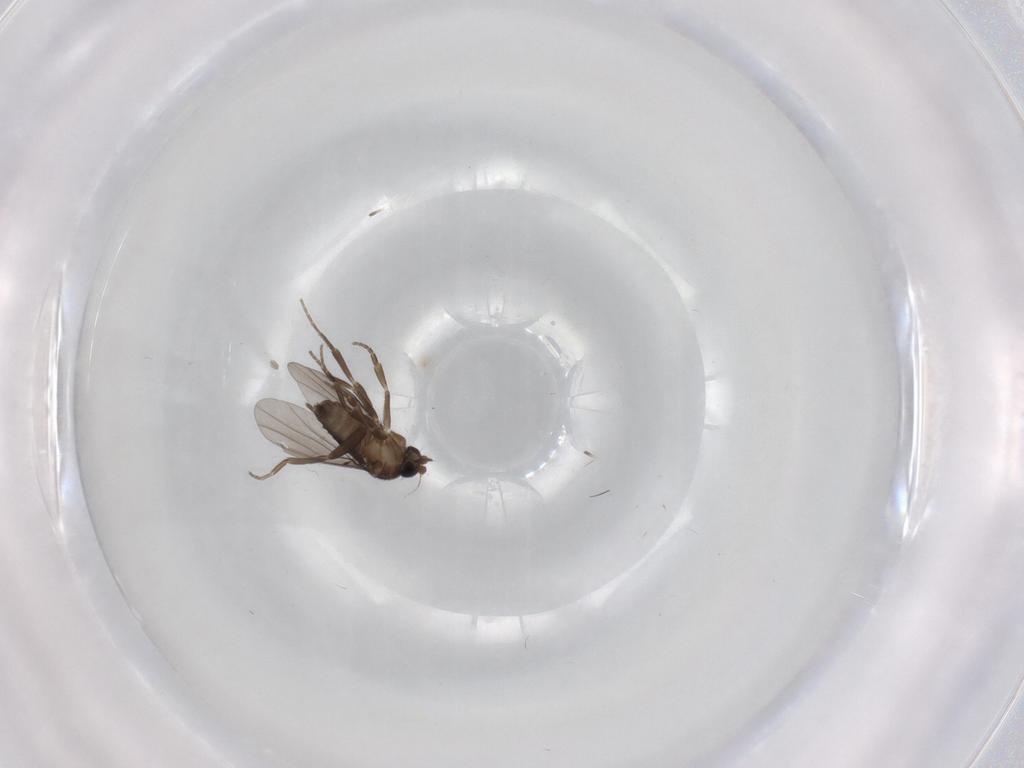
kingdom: Animalia
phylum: Arthropoda
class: Insecta
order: Diptera
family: Phoridae
